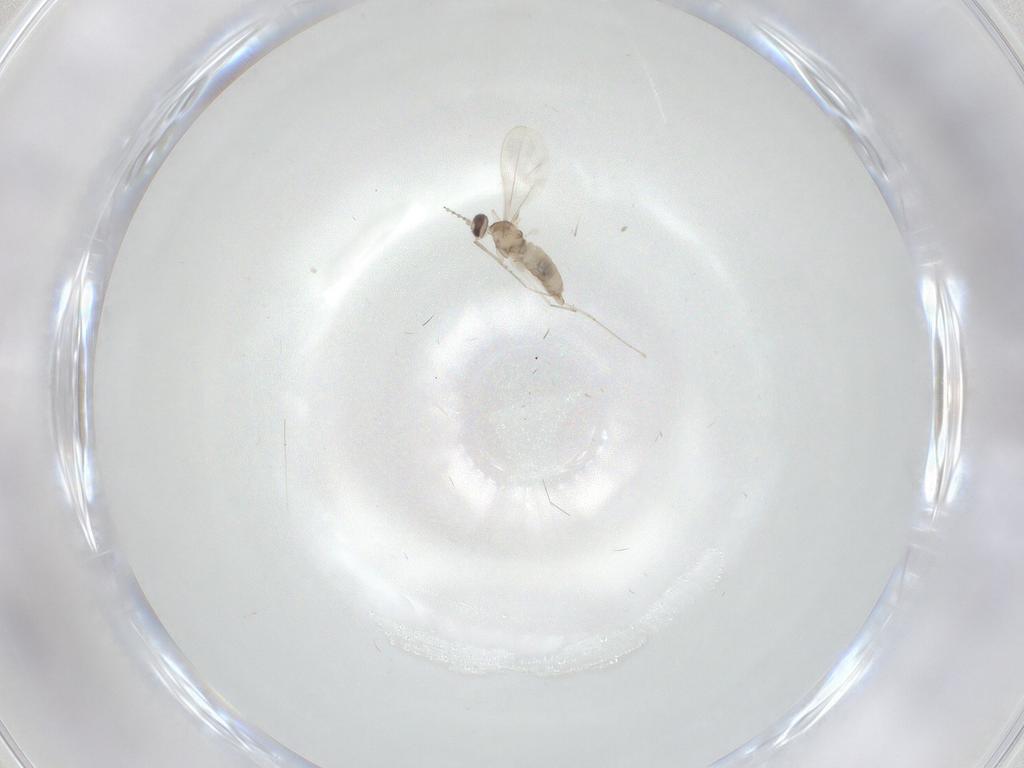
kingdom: Animalia
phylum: Arthropoda
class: Insecta
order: Diptera
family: Cecidomyiidae
